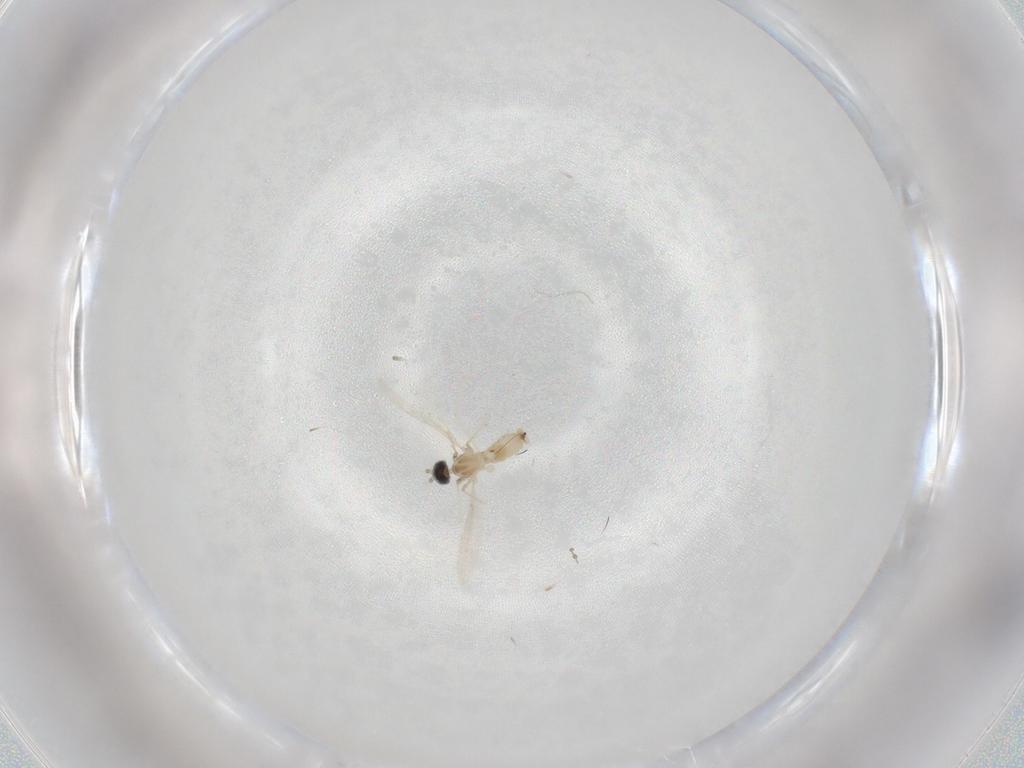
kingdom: Animalia
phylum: Arthropoda
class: Insecta
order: Diptera
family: Cecidomyiidae
